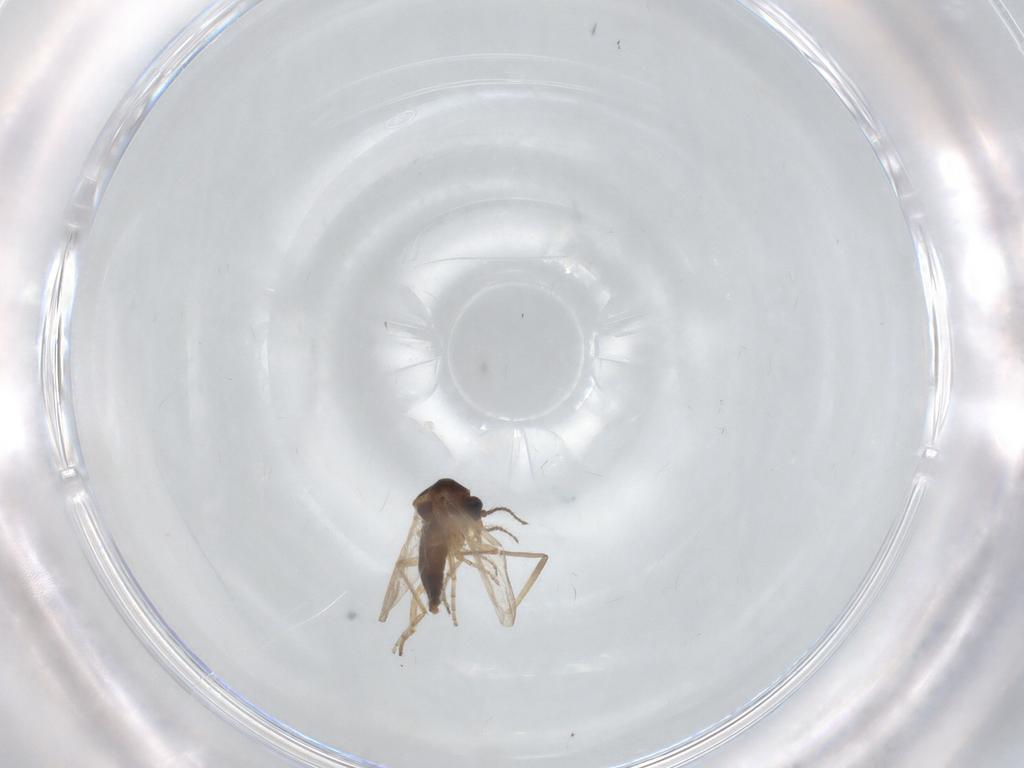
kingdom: Animalia
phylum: Arthropoda
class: Insecta
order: Diptera
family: Ceratopogonidae
